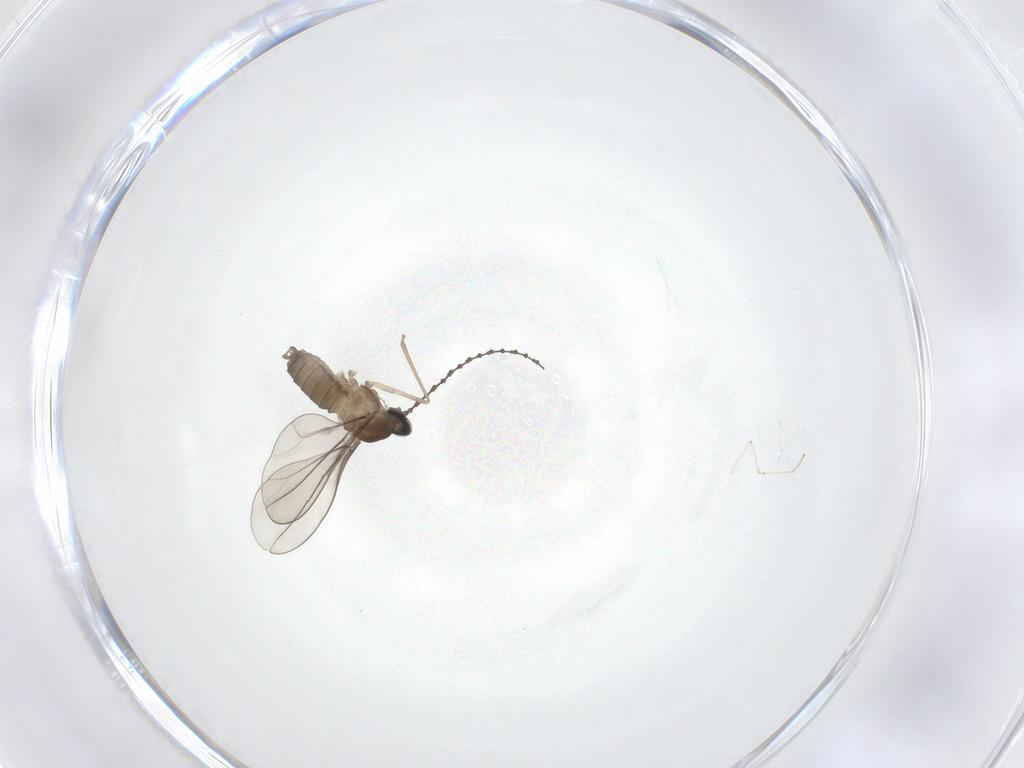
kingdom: Animalia
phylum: Arthropoda
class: Insecta
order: Diptera
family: Cecidomyiidae
